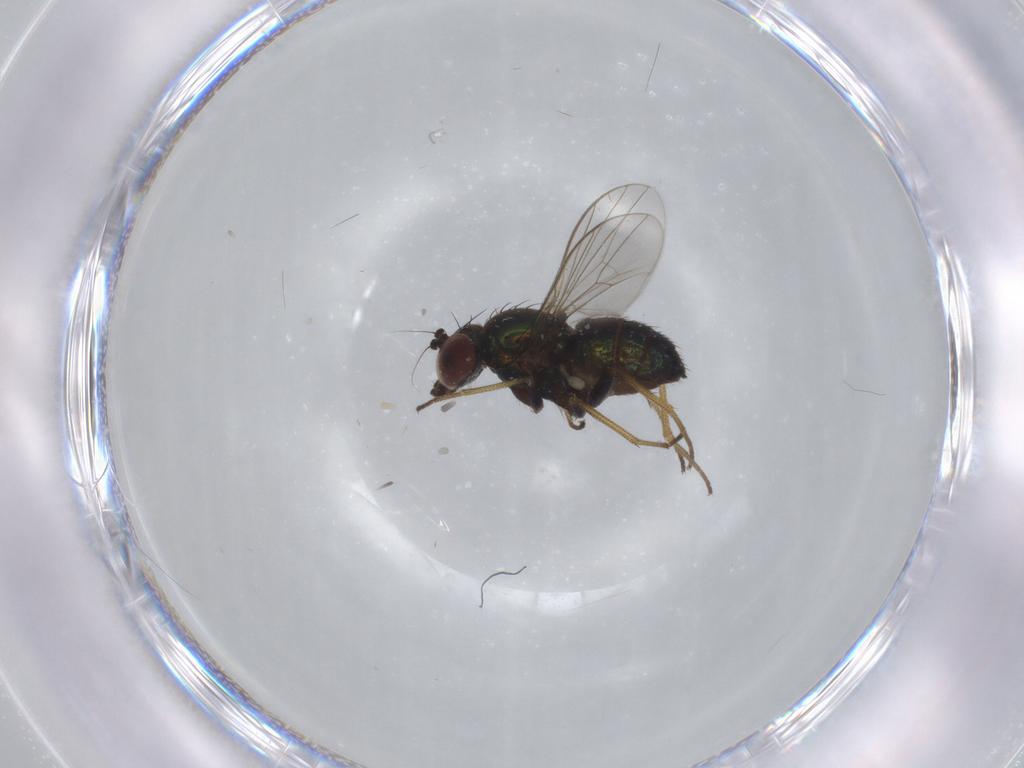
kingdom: Animalia
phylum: Arthropoda
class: Insecta
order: Diptera
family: Dolichopodidae
